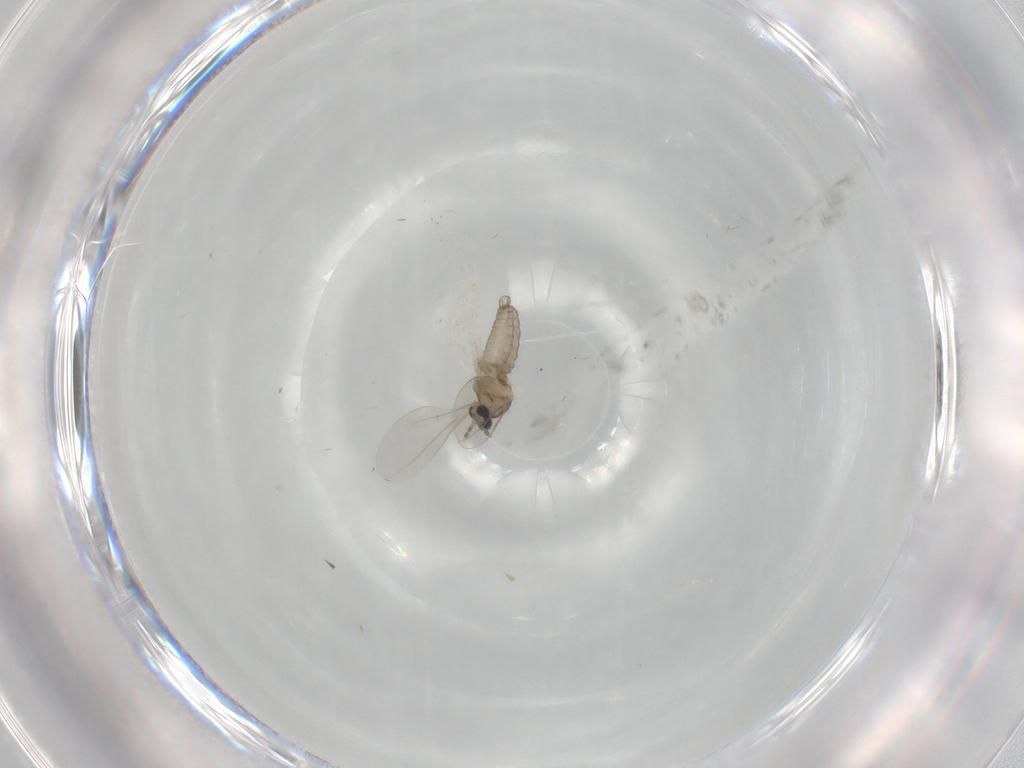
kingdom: Animalia
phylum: Arthropoda
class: Insecta
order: Diptera
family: Cecidomyiidae
